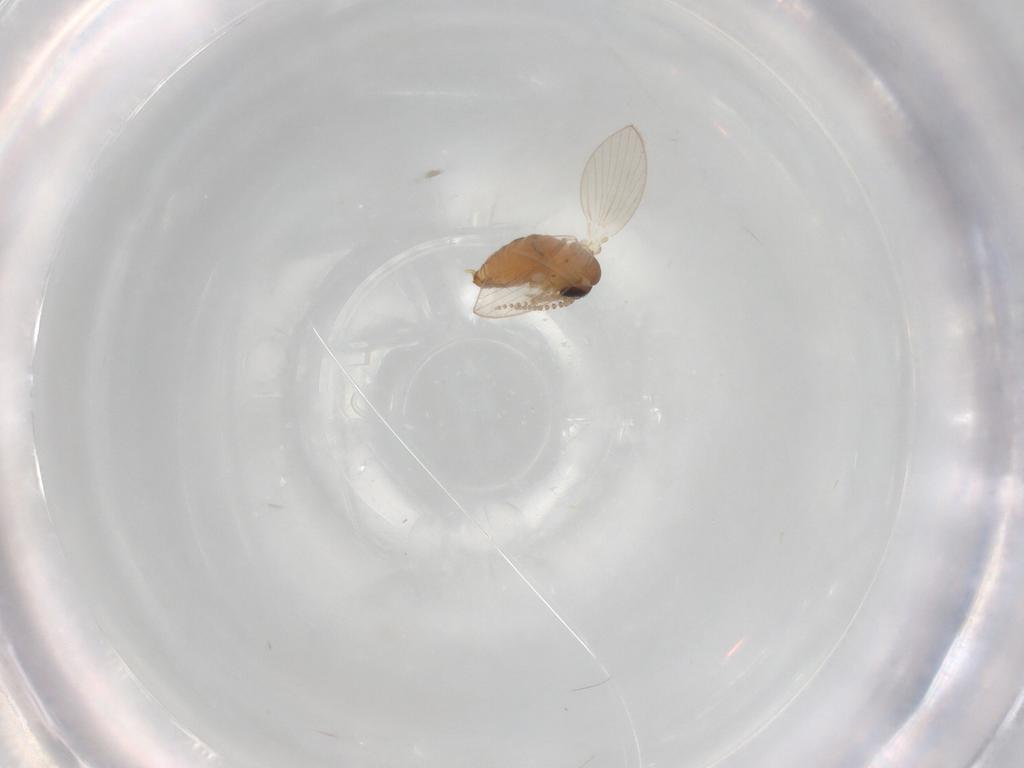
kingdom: Animalia
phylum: Arthropoda
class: Insecta
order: Diptera
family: Psychodidae
